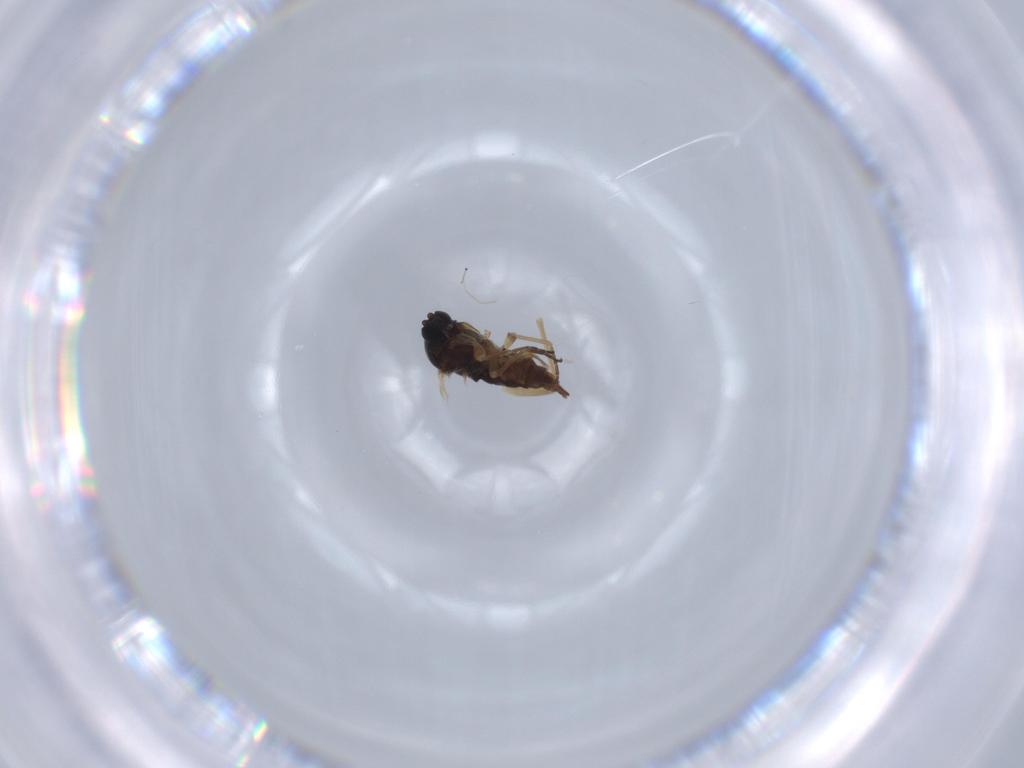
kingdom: Animalia
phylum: Arthropoda
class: Insecta
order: Diptera
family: Sciaridae
